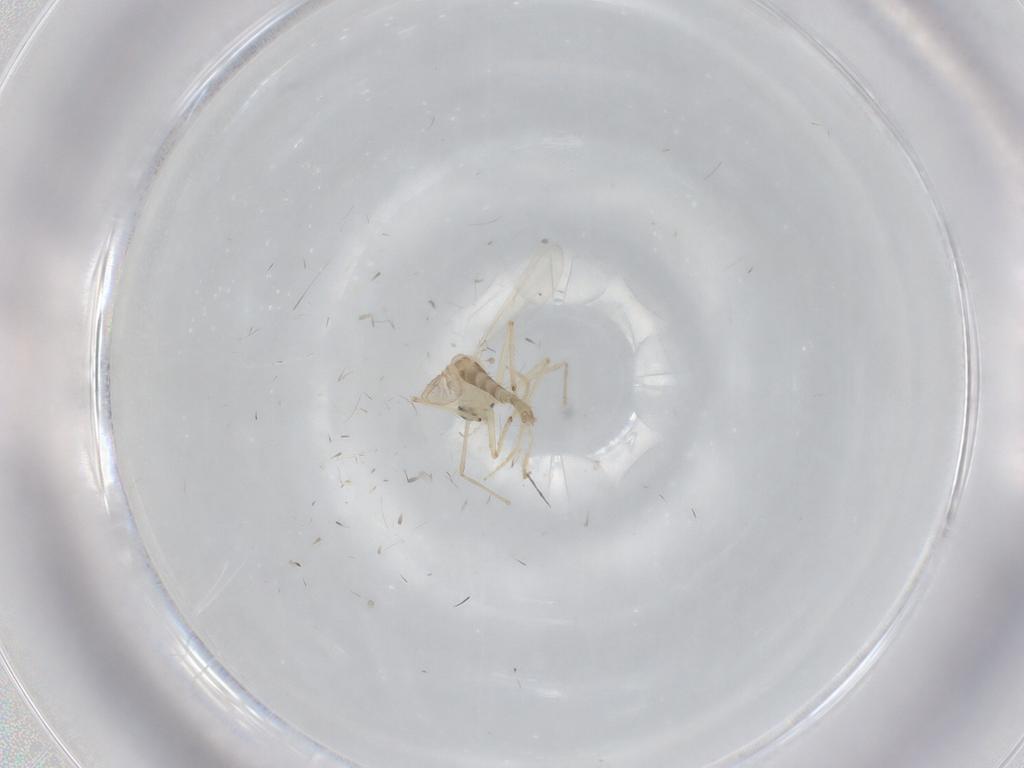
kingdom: Animalia
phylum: Arthropoda
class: Insecta
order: Diptera
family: Chironomidae
